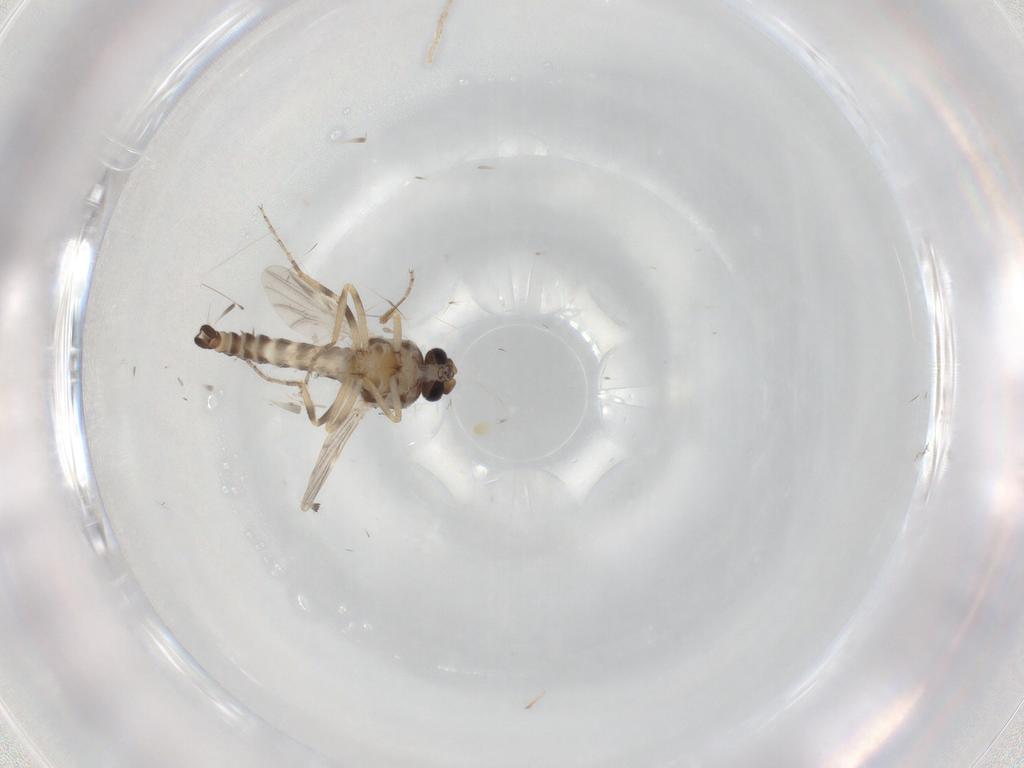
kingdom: Animalia
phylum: Arthropoda
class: Insecta
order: Diptera
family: Ceratopogonidae
